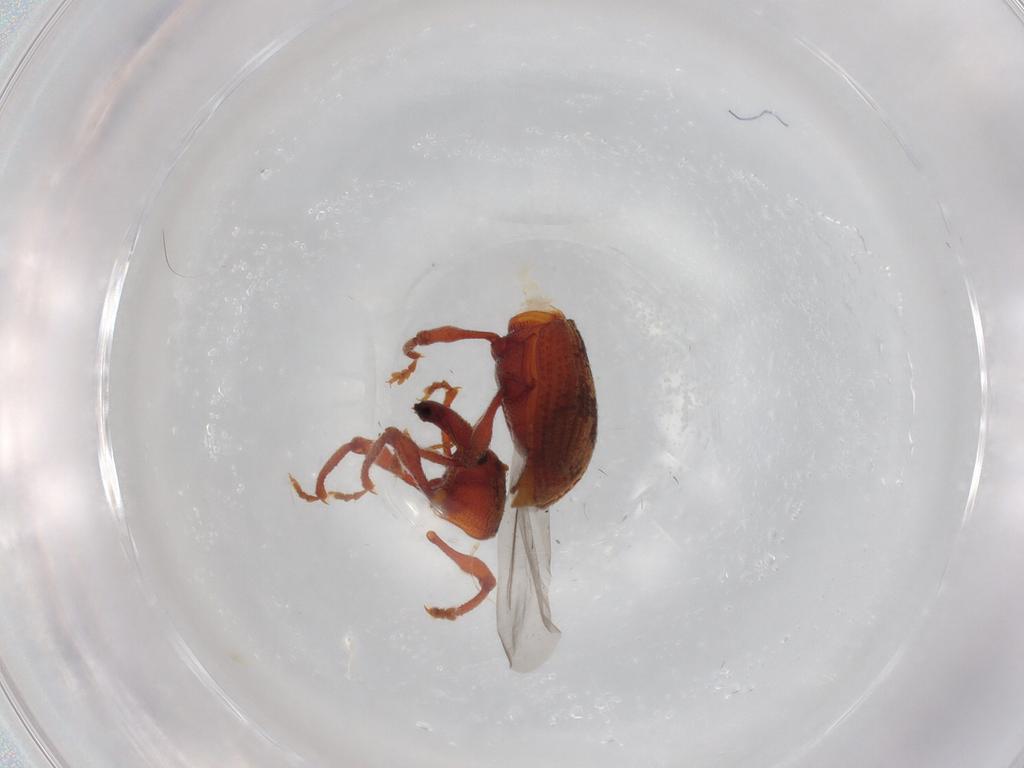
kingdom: Animalia
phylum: Arthropoda
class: Insecta
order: Coleoptera
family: Curculionidae
